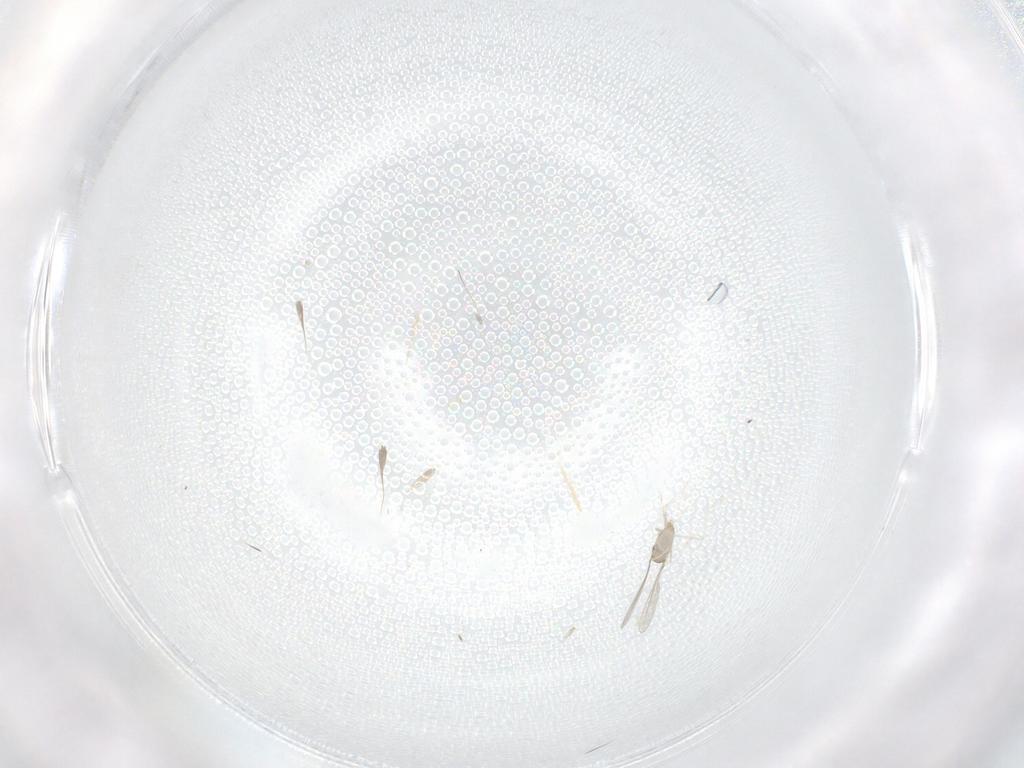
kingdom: Animalia
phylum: Arthropoda
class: Insecta
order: Diptera
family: Cecidomyiidae
